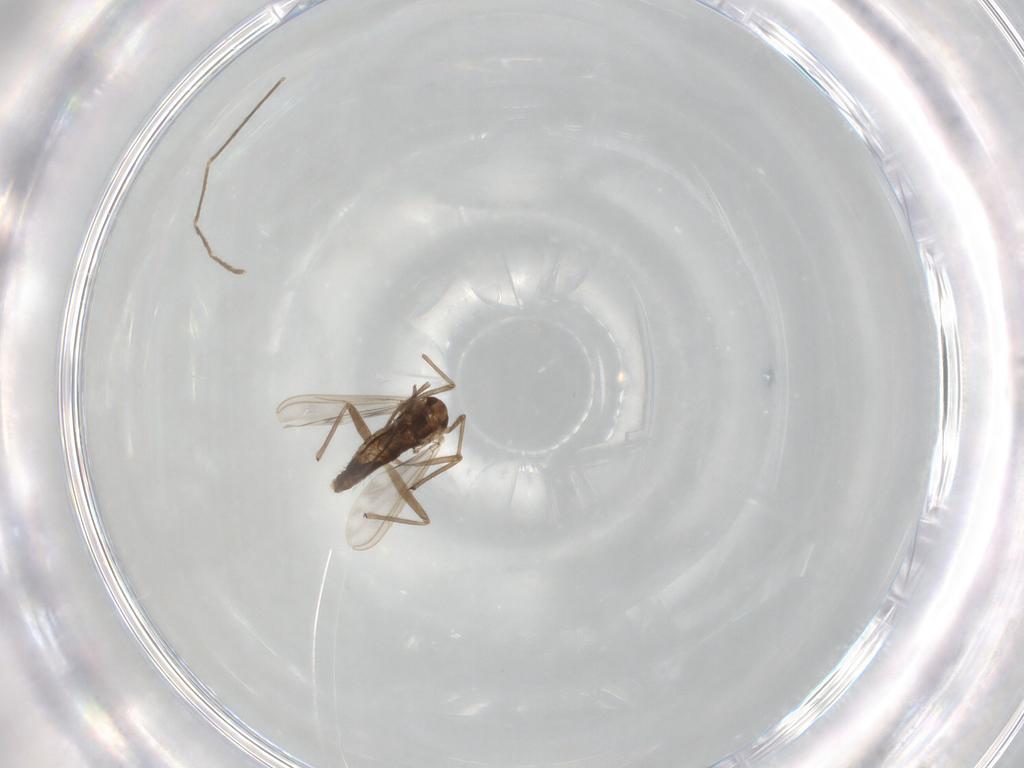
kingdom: Animalia
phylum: Arthropoda
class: Insecta
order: Diptera
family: Chironomidae
